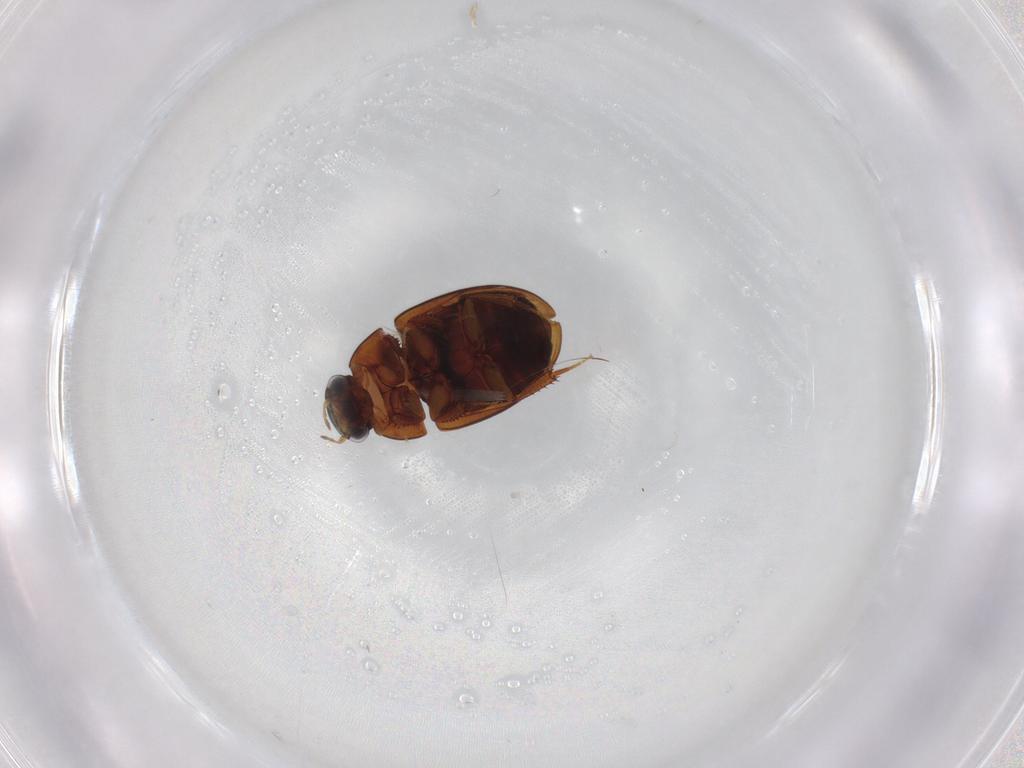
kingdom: Animalia
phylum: Arthropoda
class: Insecta
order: Coleoptera
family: Hydrophilidae
